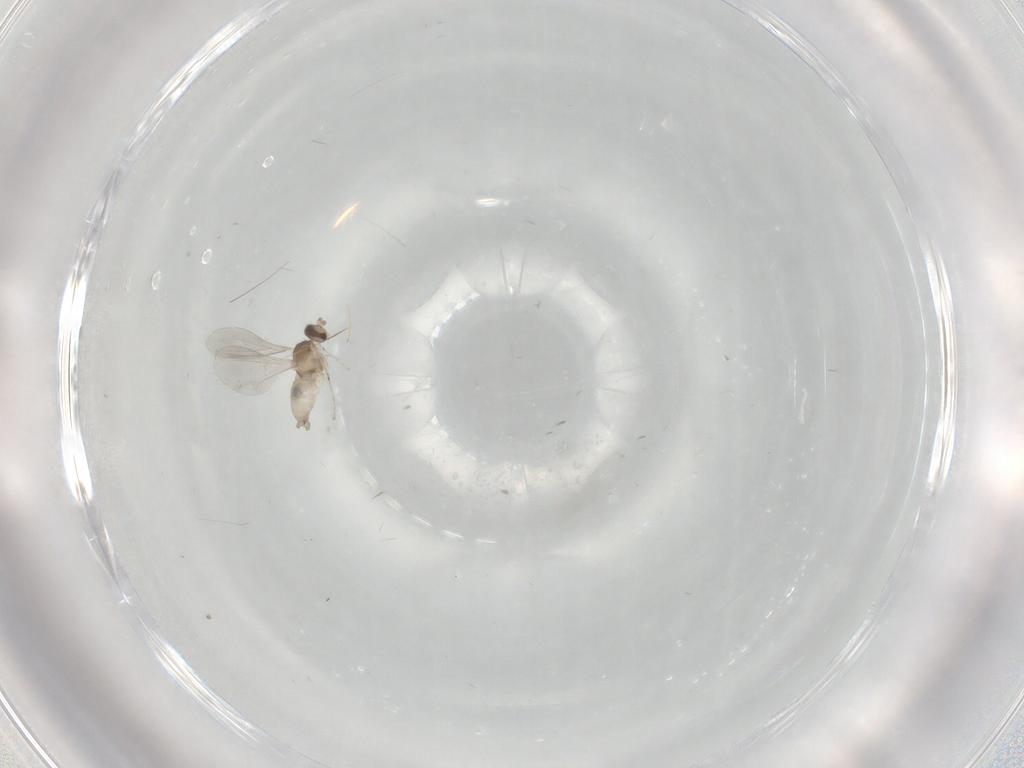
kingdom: Animalia
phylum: Arthropoda
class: Insecta
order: Diptera
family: Cecidomyiidae
